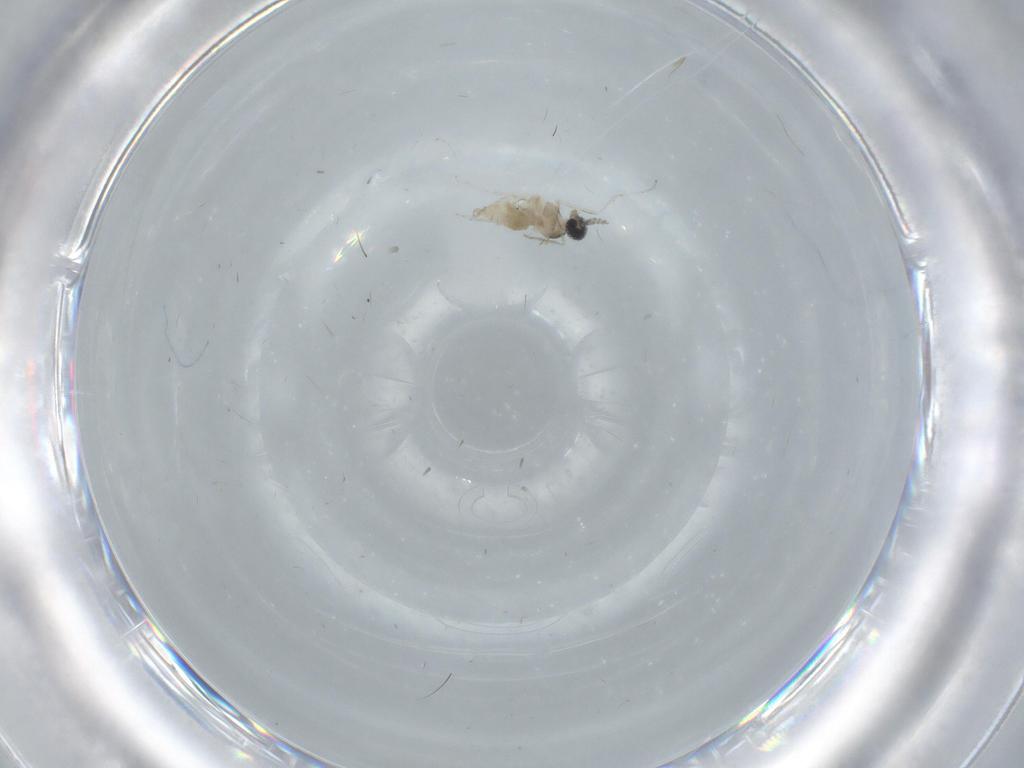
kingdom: Animalia
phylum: Arthropoda
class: Insecta
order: Diptera
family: Cecidomyiidae
